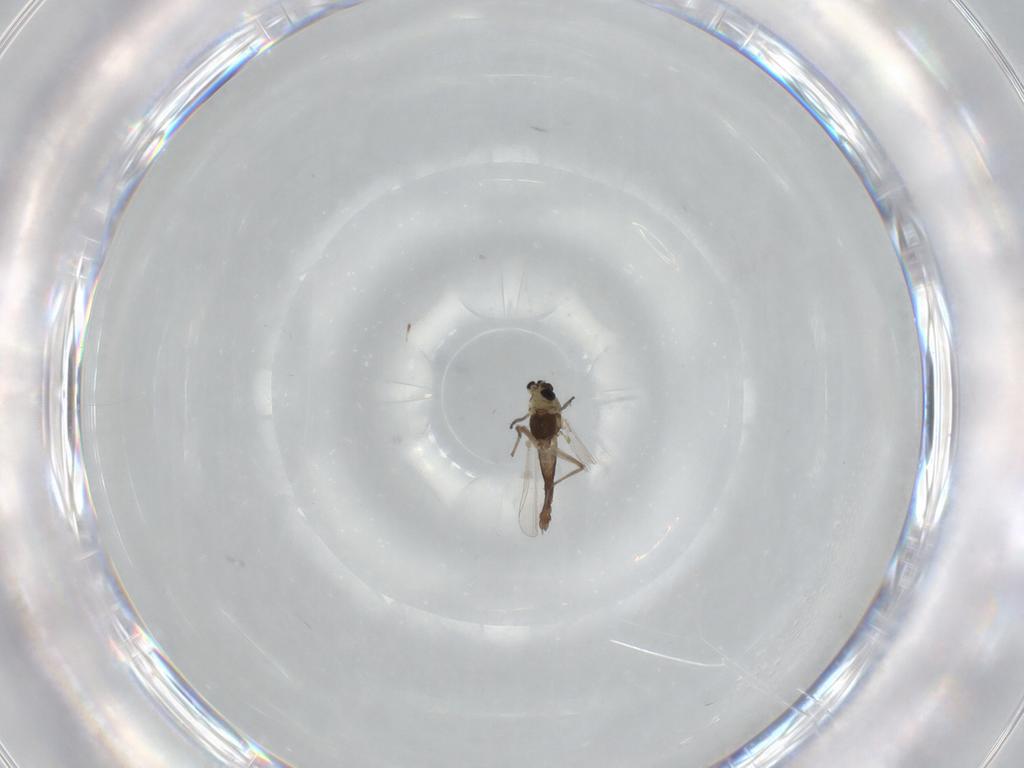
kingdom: Animalia
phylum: Arthropoda
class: Insecta
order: Diptera
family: Chironomidae
